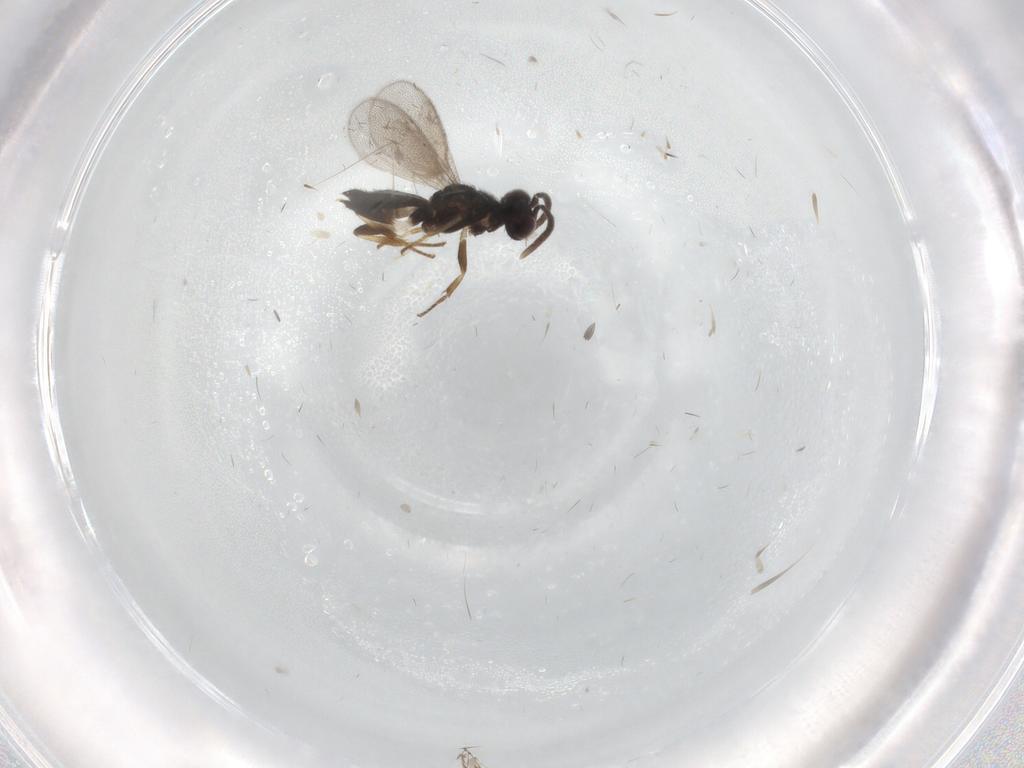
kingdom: Animalia
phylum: Arthropoda
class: Insecta
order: Hymenoptera
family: Eupelmidae
